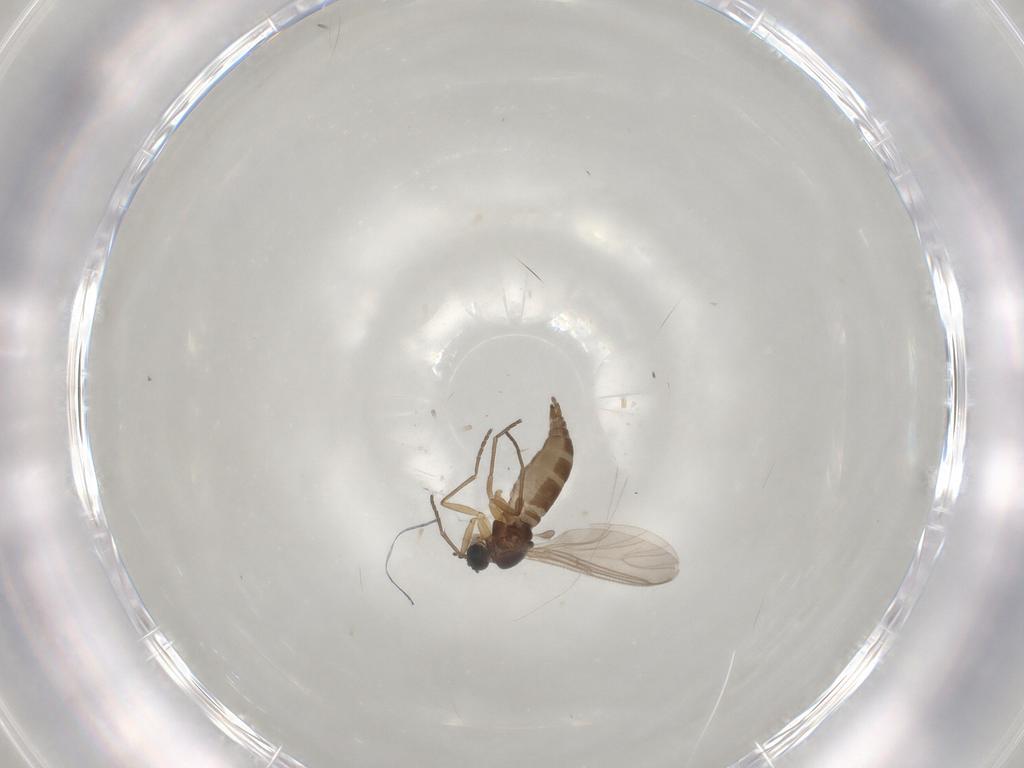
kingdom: Animalia
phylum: Arthropoda
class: Insecta
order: Diptera
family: Sciaridae
